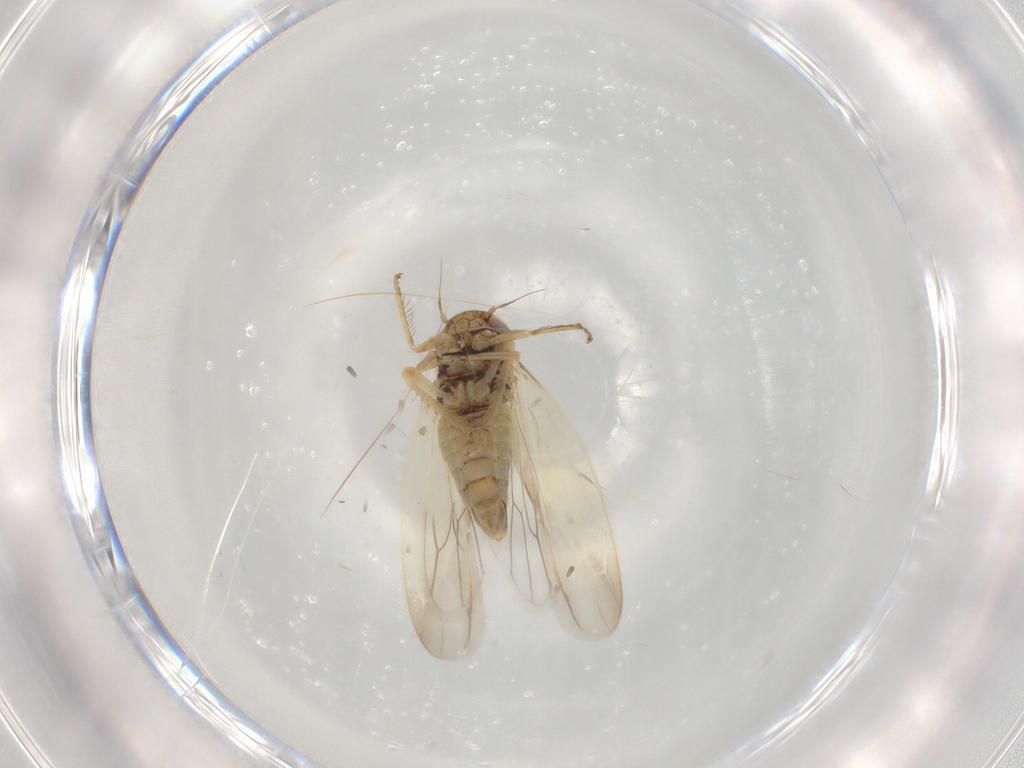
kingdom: Animalia
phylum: Arthropoda
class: Insecta
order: Hemiptera
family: Cicadellidae
